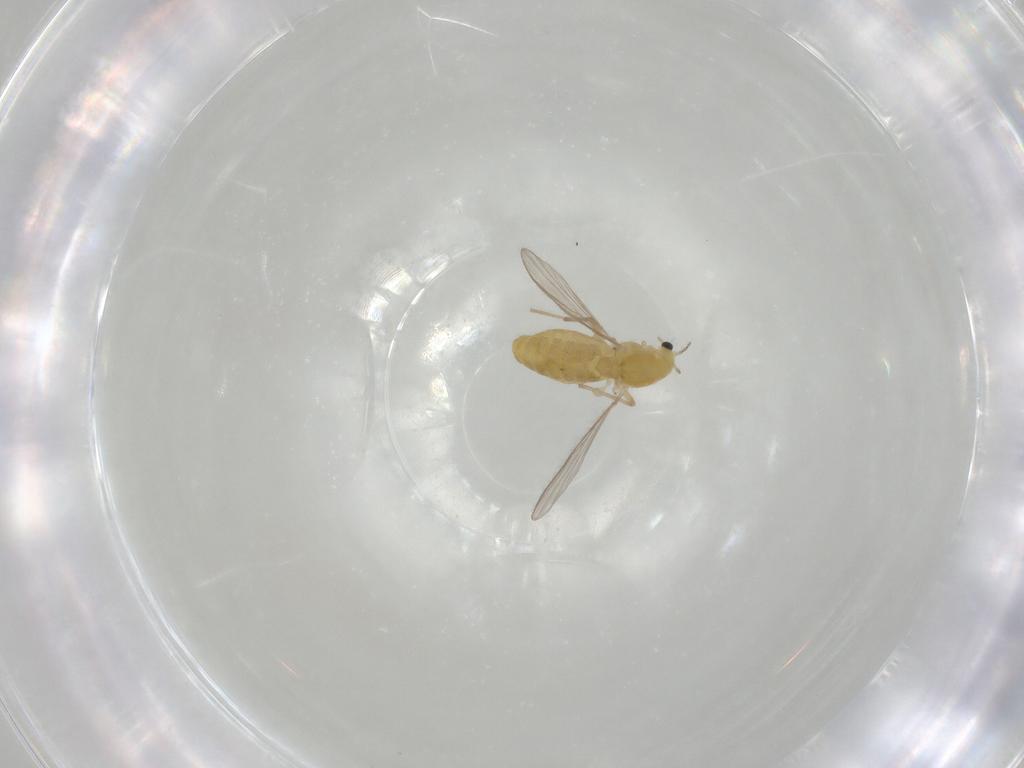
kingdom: Animalia
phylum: Arthropoda
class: Insecta
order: Diptera
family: Chironomidae
